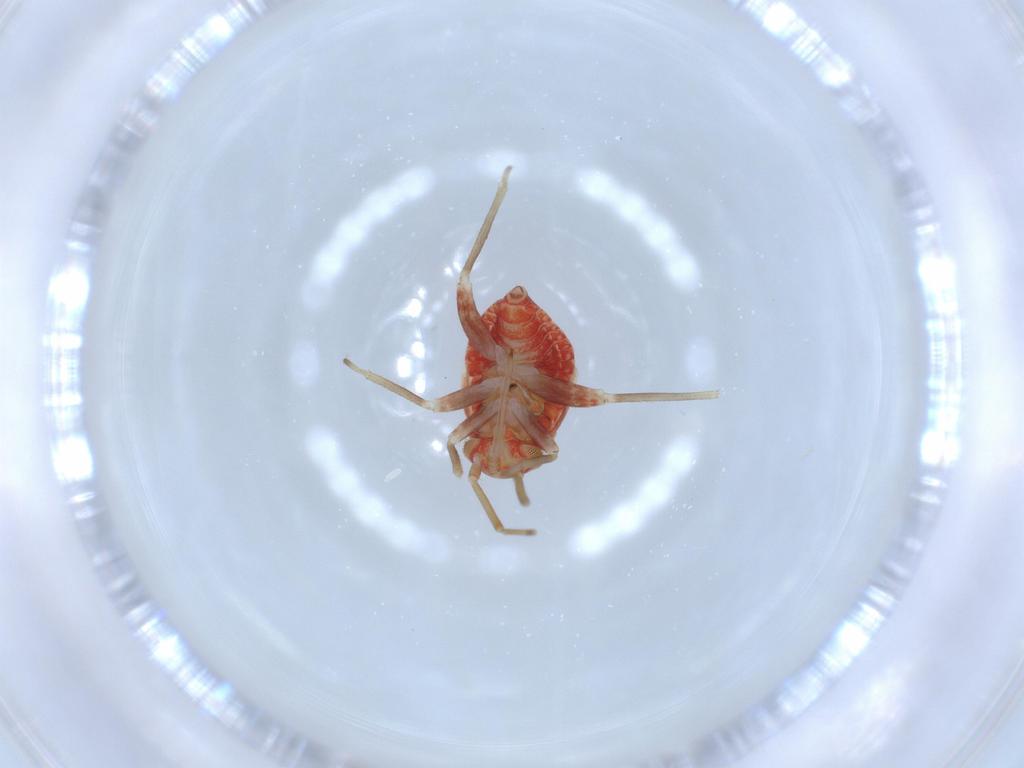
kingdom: Animalia
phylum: Arthropoda
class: Insecta
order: Hemiptera
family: Miridae
